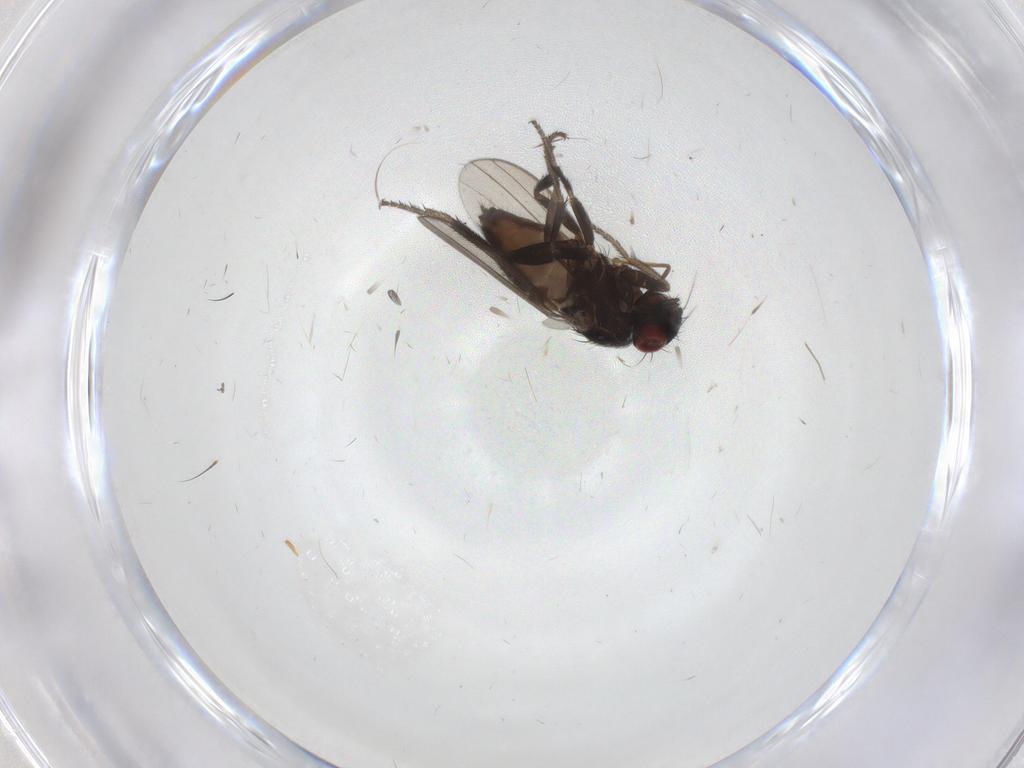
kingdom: Animalia
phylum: Arthropoda
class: Insecta
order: Diptera
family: Milichiidae
